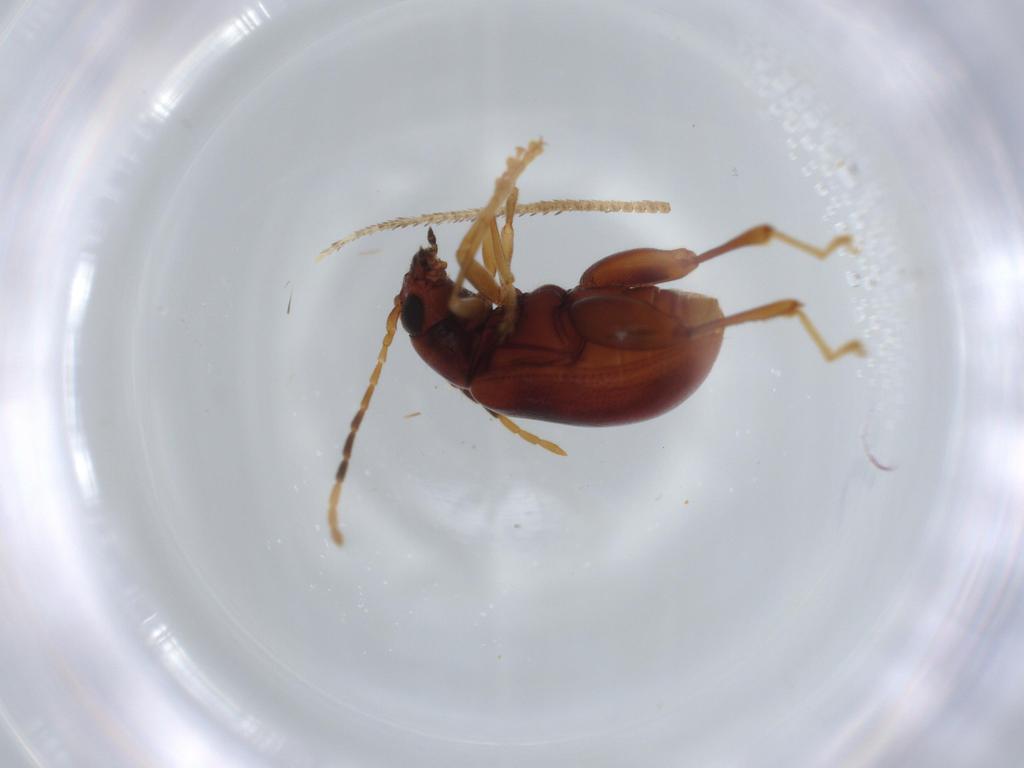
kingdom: Animalia
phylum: Arthropoda
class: Insecta
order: Coleoptera
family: Chrysomelidae
